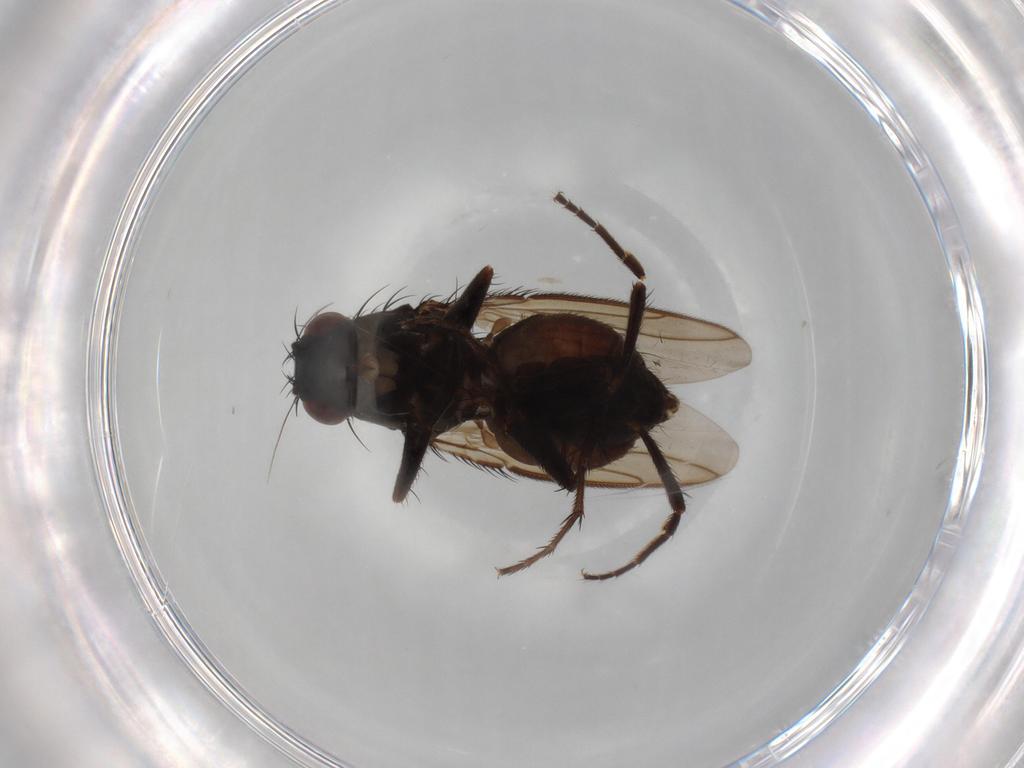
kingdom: Animalia
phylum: Arthropoda
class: Insecta
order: Diptera
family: Sphaeroceridae
